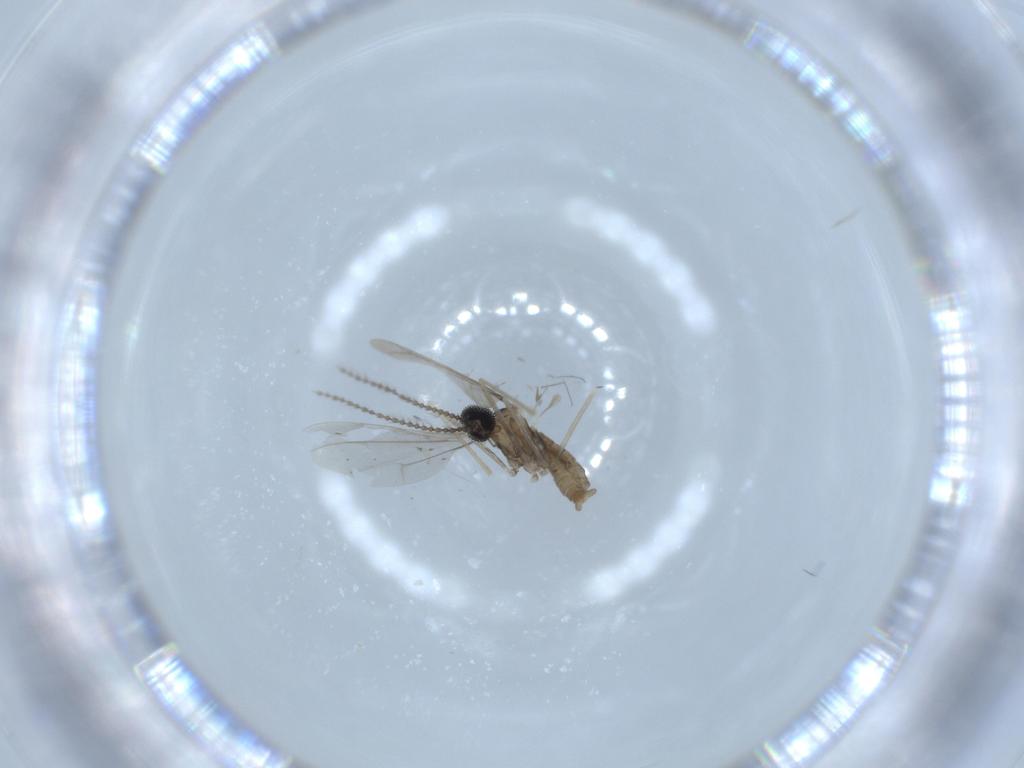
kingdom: Animalia
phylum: Arthropoda
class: Insecta
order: Diptera
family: Cecidomyiidae
